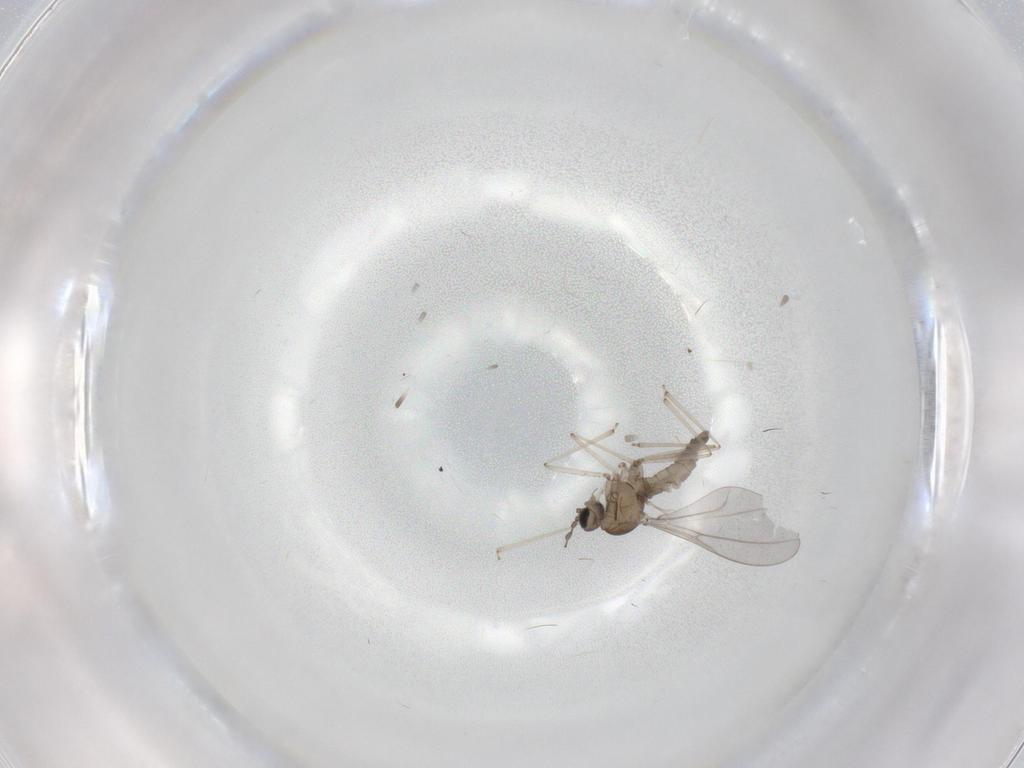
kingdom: Animalia
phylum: Arthropoda
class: Insecta
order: Diptera
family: Cecidomyiidae
